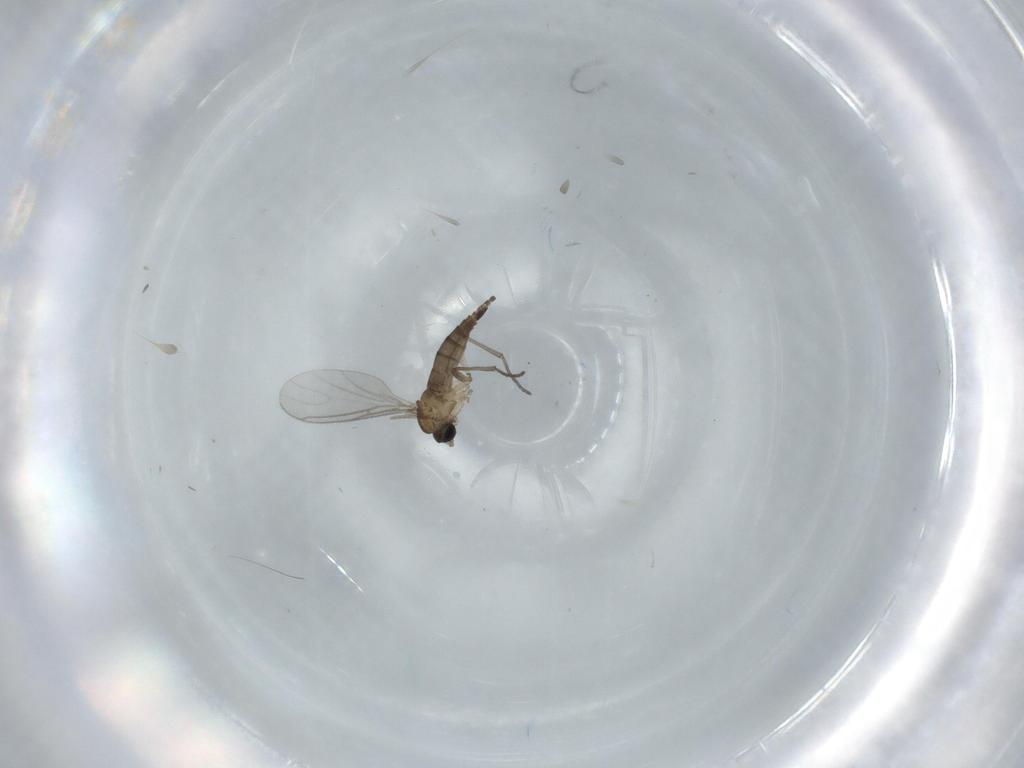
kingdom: Animalia
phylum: Arthropoda
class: Insecta
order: Diptera
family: Sciaridae
